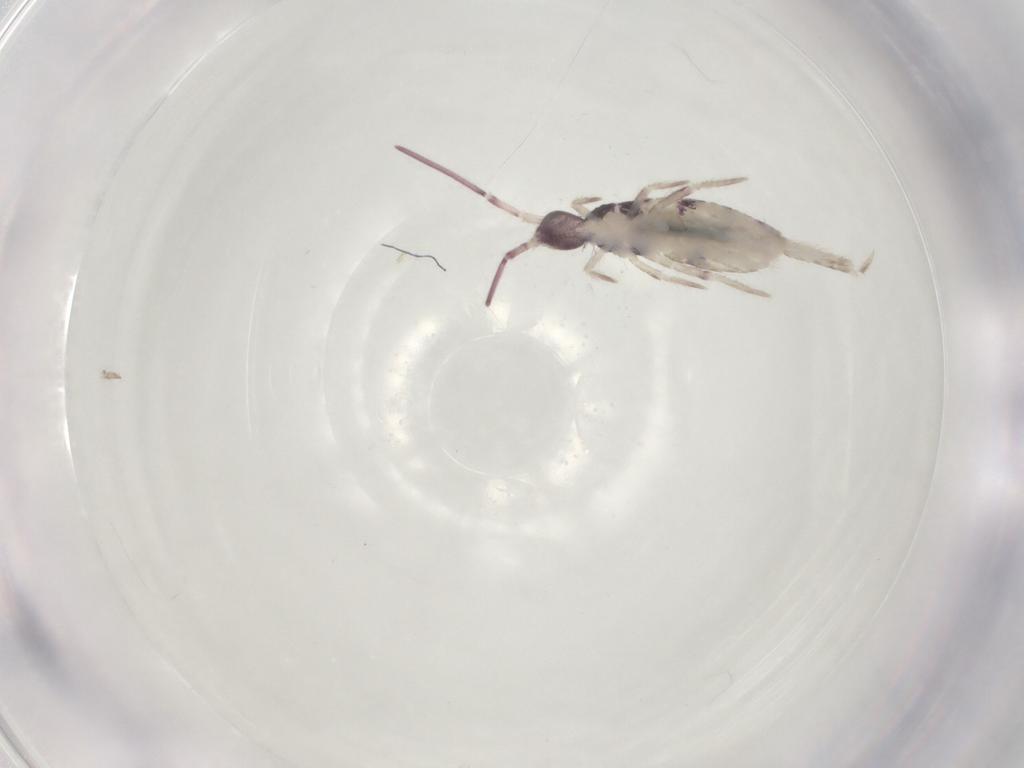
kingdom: Animalia
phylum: Arthropoda
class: Collembola
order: Entomobryomorpha
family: Entomobryidae
